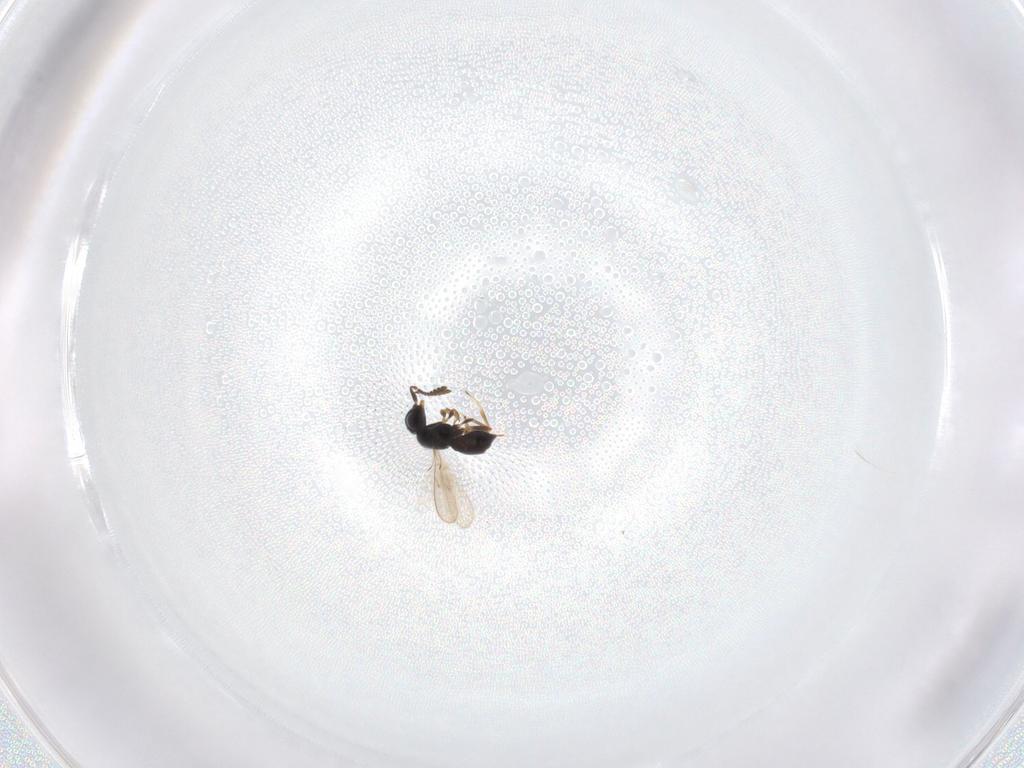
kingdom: Animalia
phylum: Arthropoda
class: Insecta
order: Hymenoptera
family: Scelionidae
